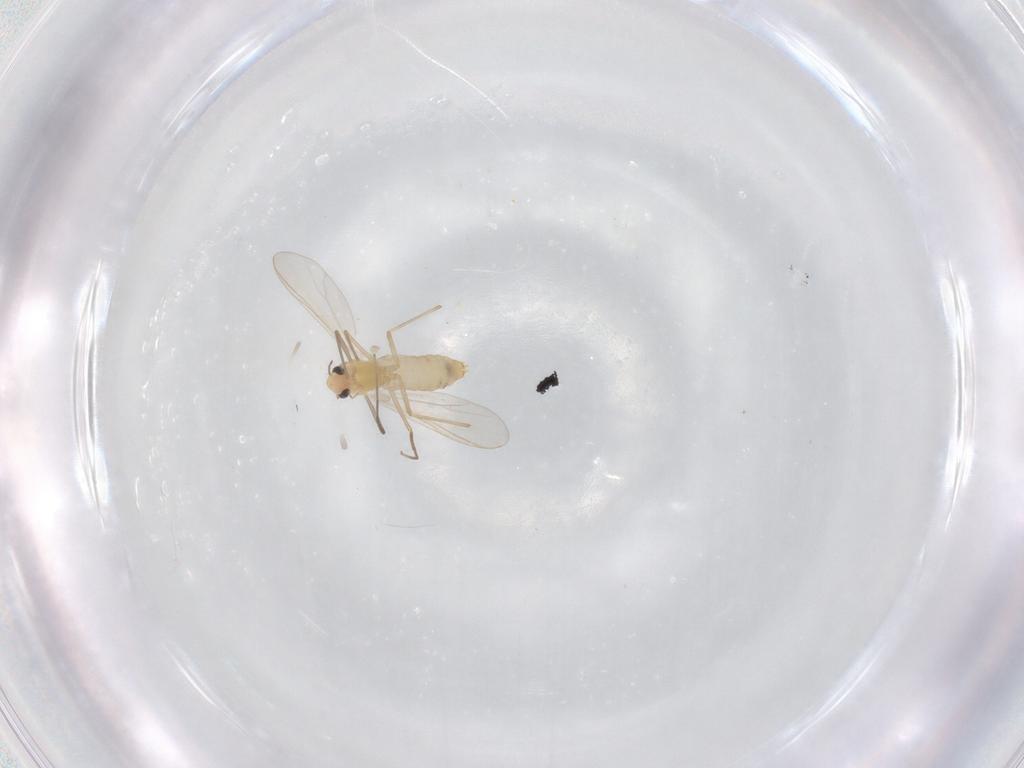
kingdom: Animalia
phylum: Arthropoda
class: Insecta
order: Diptera
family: Chironomidae
